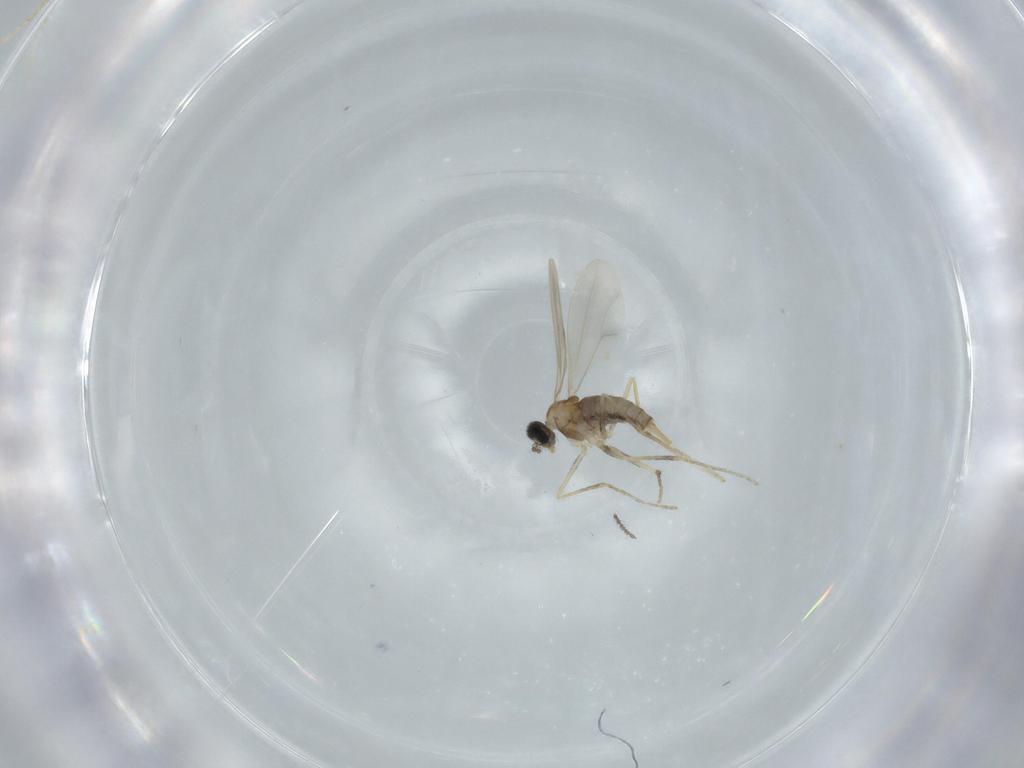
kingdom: Animalia
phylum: Arthropoda
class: Insecta
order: Diptera
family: Cecidomyiidae
